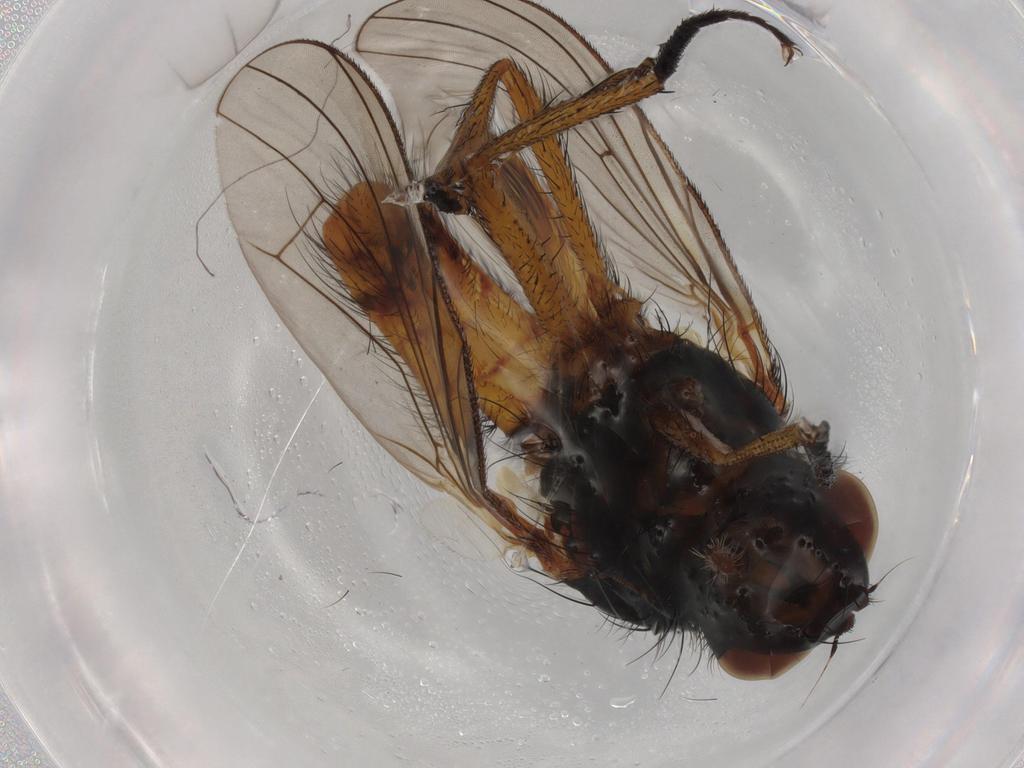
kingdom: Animalia
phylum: Arthropoda
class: Insecta
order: Diptera
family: Anthomyiidae
